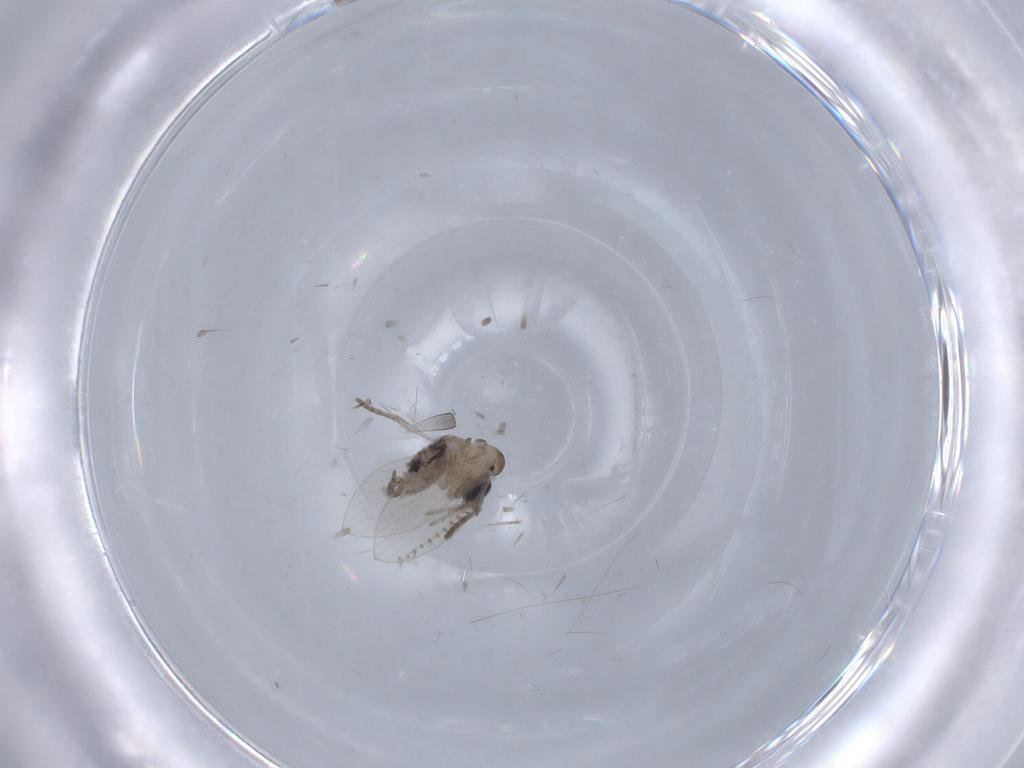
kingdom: Animalia
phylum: Arthropoda
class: Insecta
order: Diptera
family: Psychodidae
